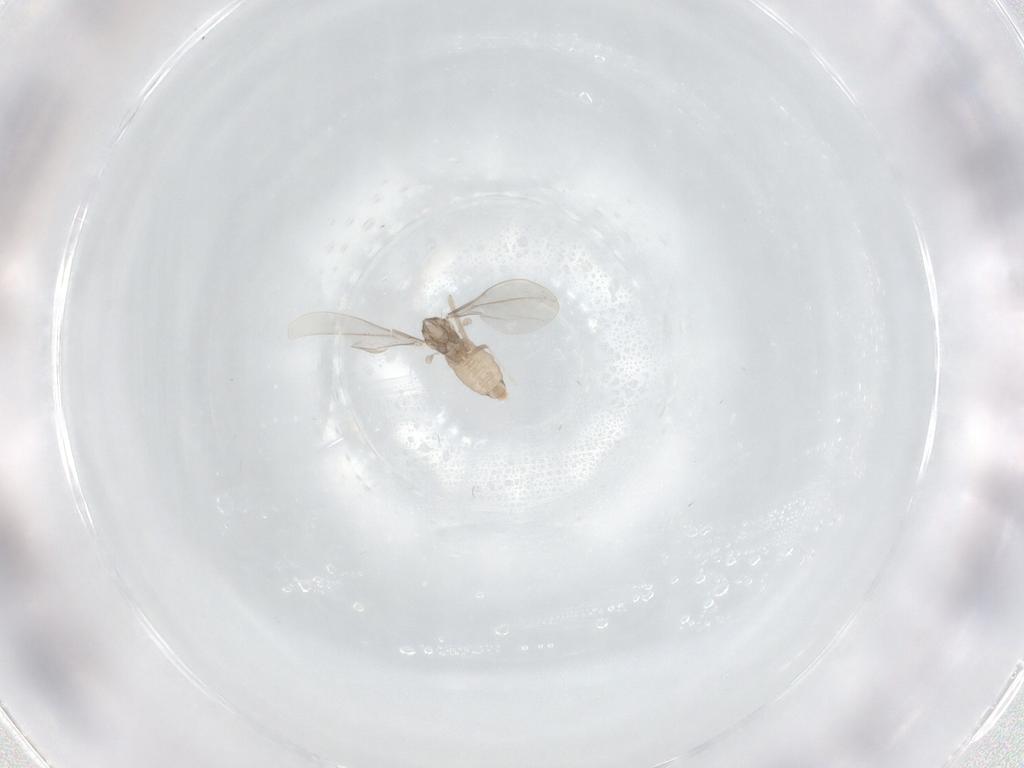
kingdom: Animalia
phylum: Arthropoda
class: Insecta
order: Diptera
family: Cecidomyiidae
